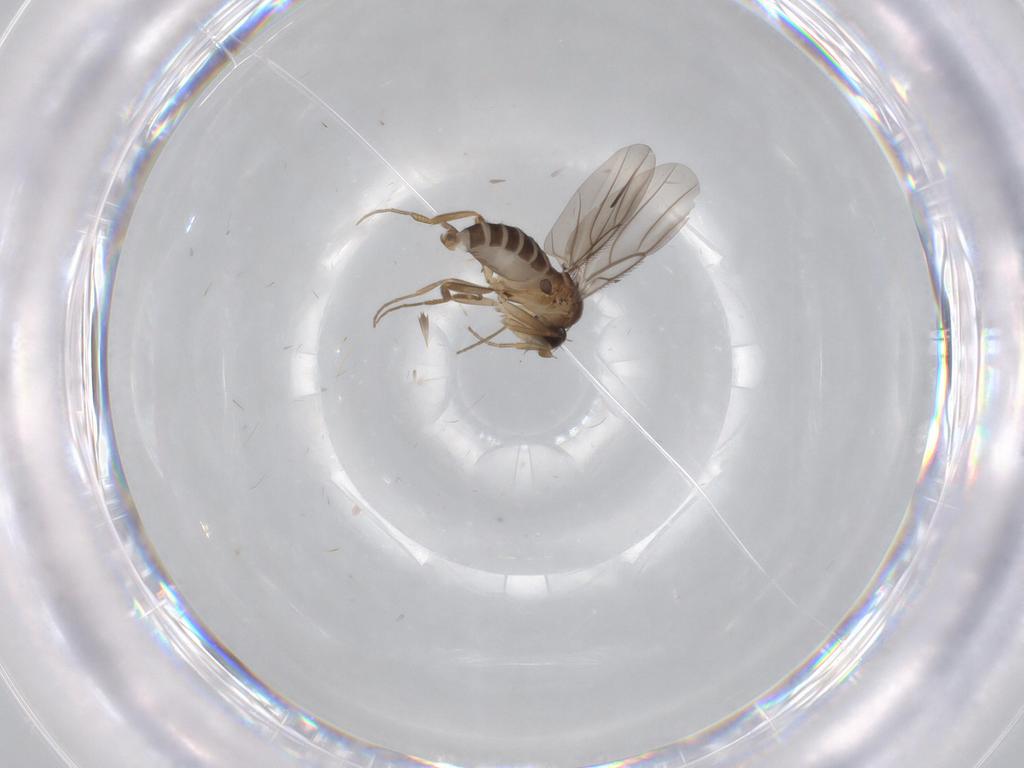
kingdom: Animalia
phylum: Arthropoda
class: Insecta
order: Diptera
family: Phoridae
